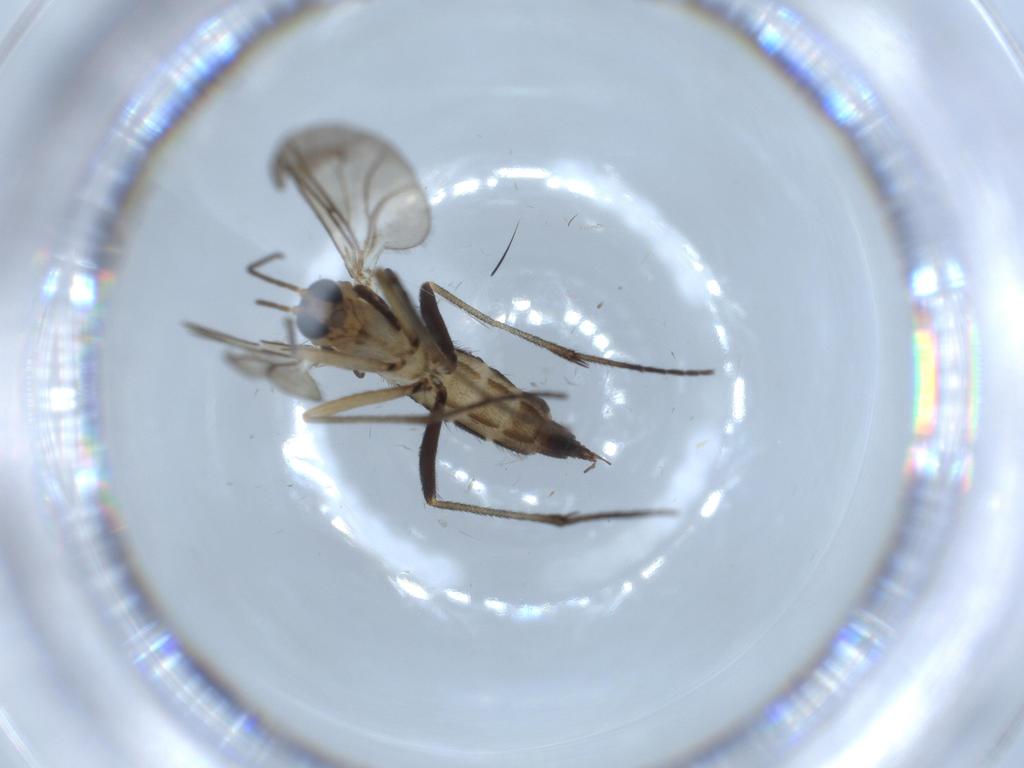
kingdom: Animalia
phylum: Arthropoda
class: Insecta
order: Diptera
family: Sciaridae
